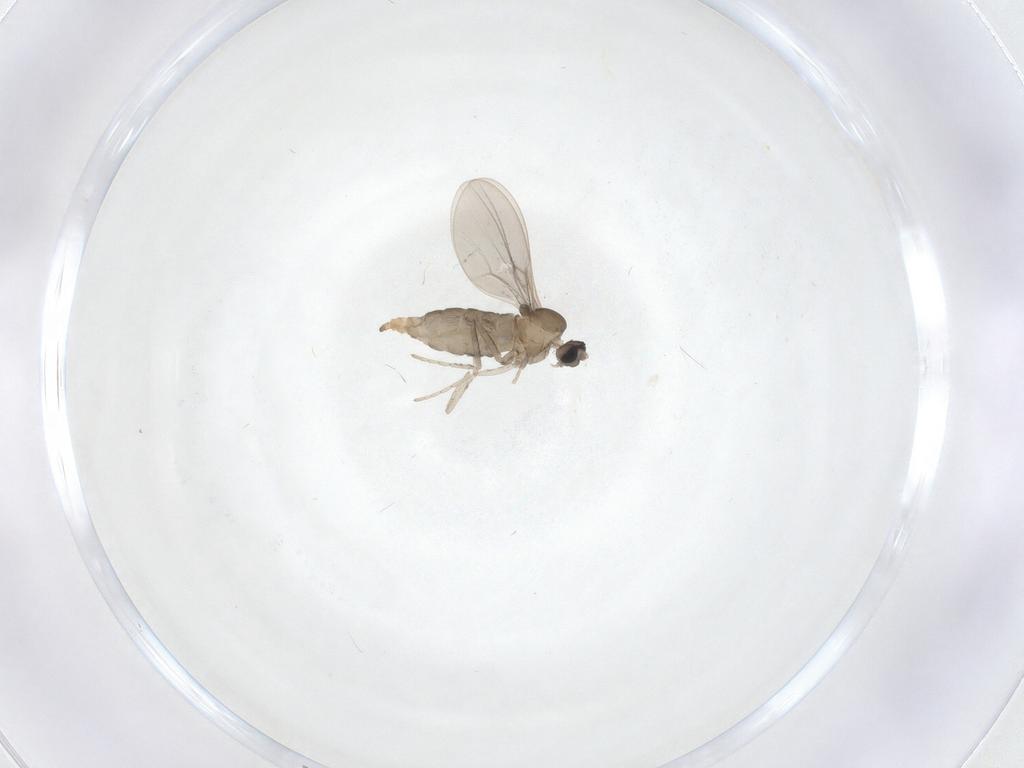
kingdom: Animalia
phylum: Arthropoda
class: Insecta
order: Diptera
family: Cecidomyiidae
